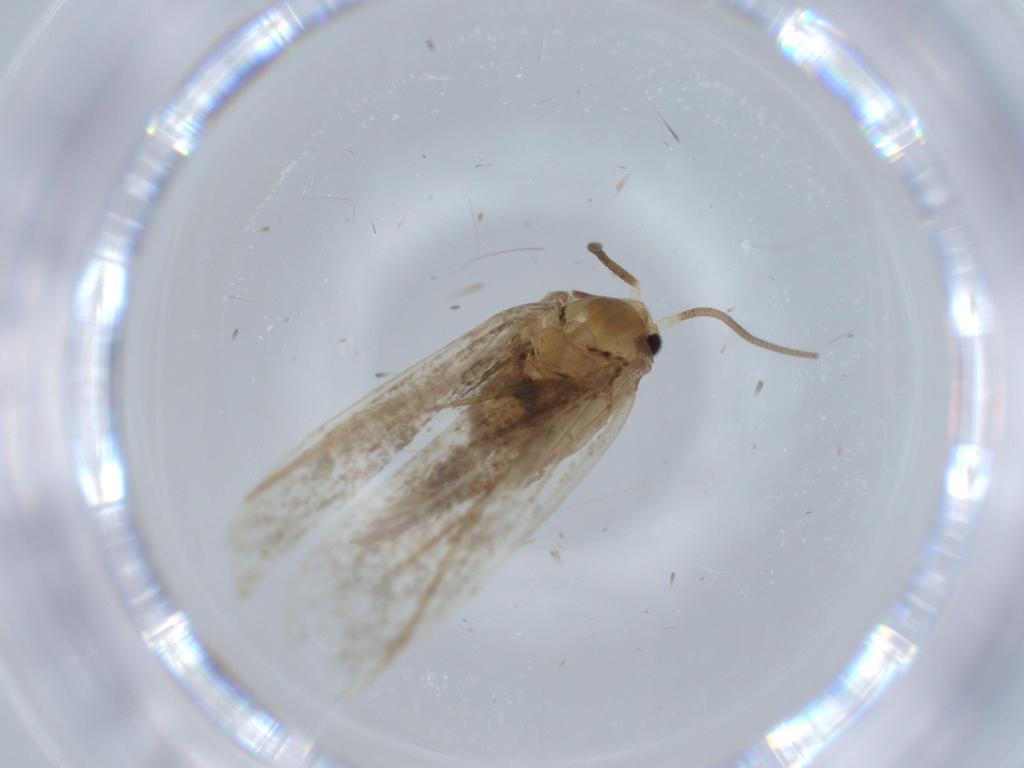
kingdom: Animalia
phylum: Arthropoda
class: Insecta
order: Lepidoptera
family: Thyrididae
